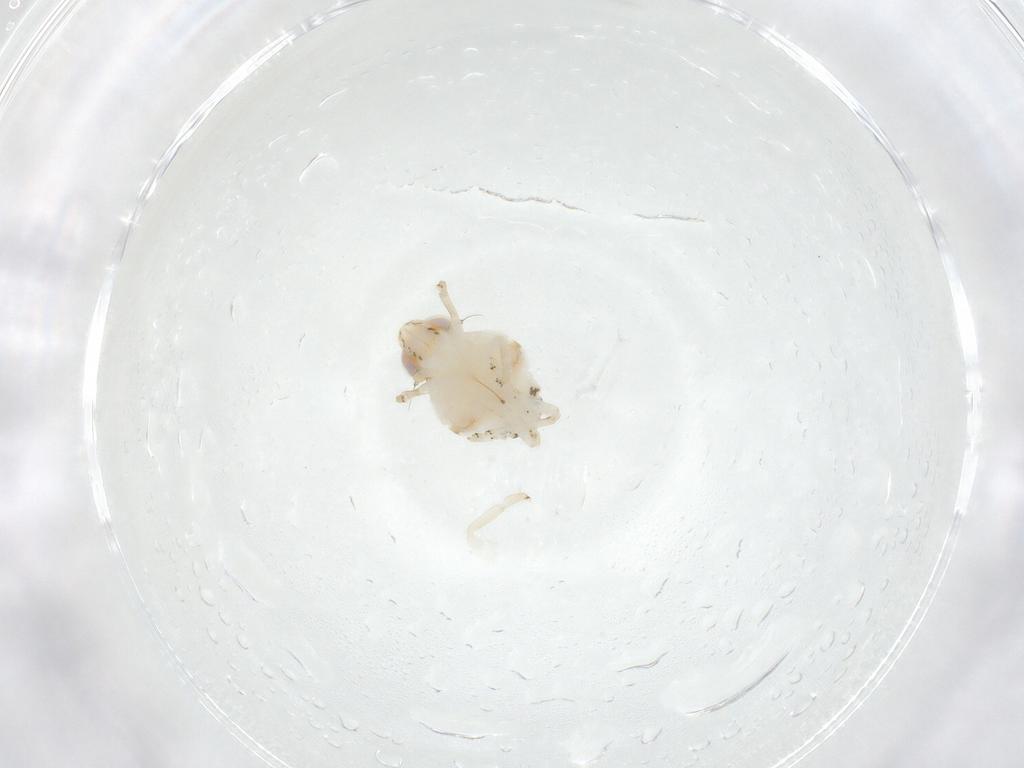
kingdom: Animalia
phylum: Arthropoda
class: Insecta
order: Hemiptera
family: Nogodinidae
